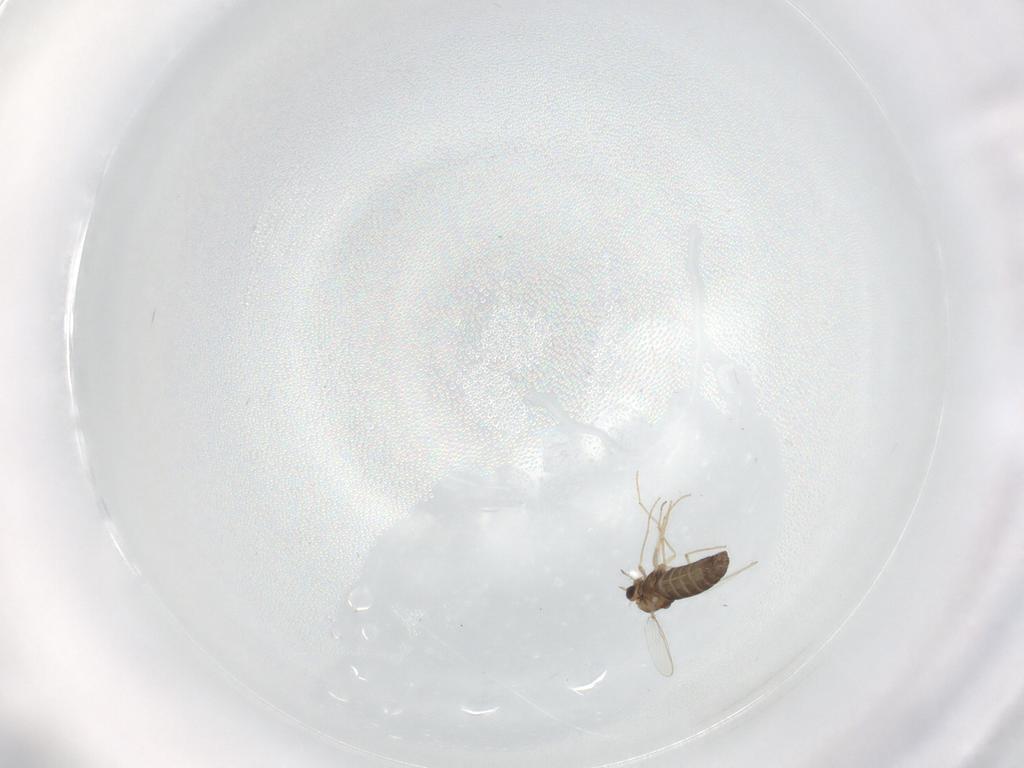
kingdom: Animalia
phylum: Arthropoda
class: Insecta
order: Diptera
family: Chironomidae
